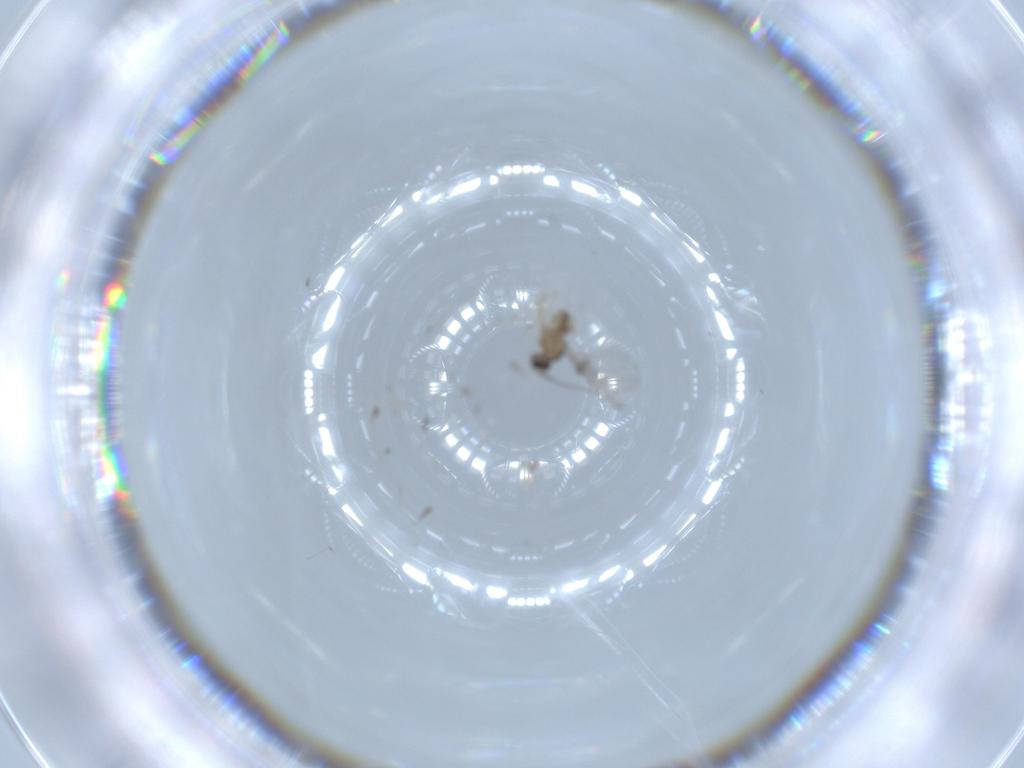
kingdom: Animalia
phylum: Arthropoda
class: Insecta
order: Diptera
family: Cecidomyiidae
